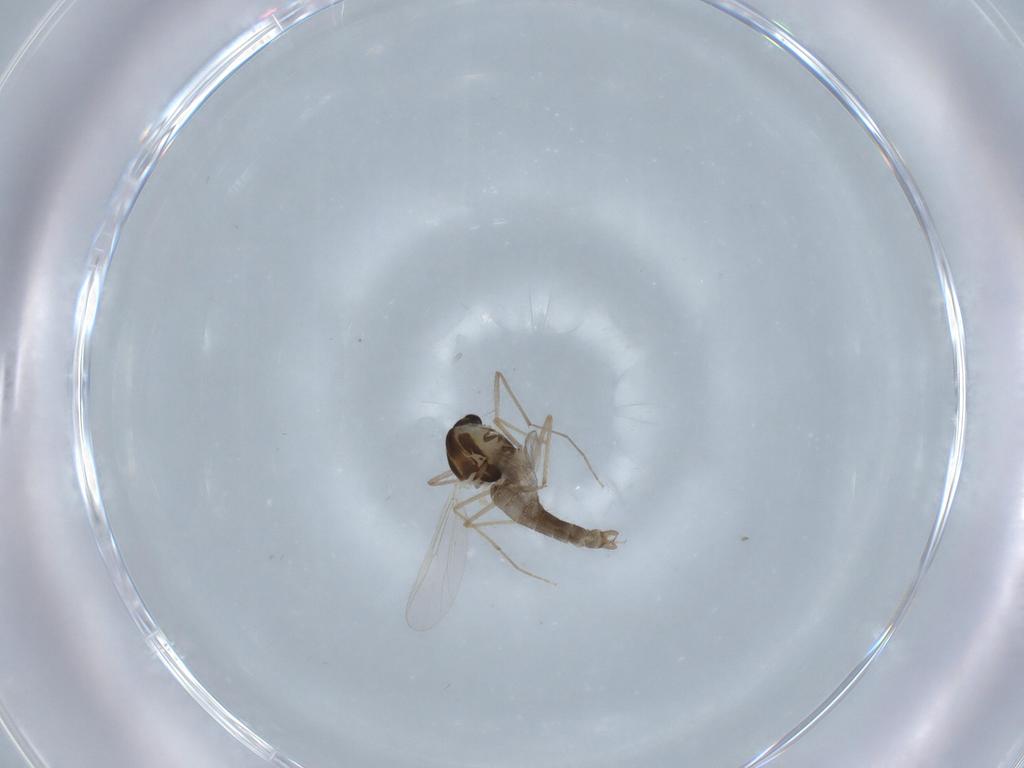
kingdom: Animalia
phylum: Arthropoda
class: Insecta
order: Diptera
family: Chironomidae
